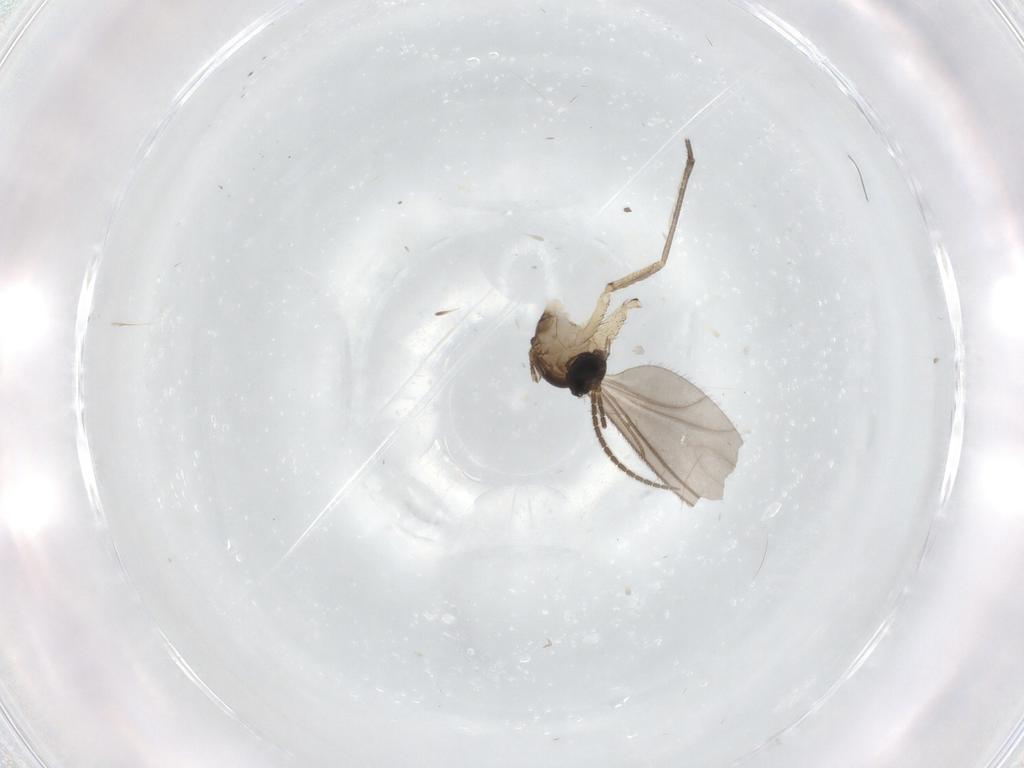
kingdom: Animalia
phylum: Arthropoda
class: Insecta
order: Diptera
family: Sciaridae
